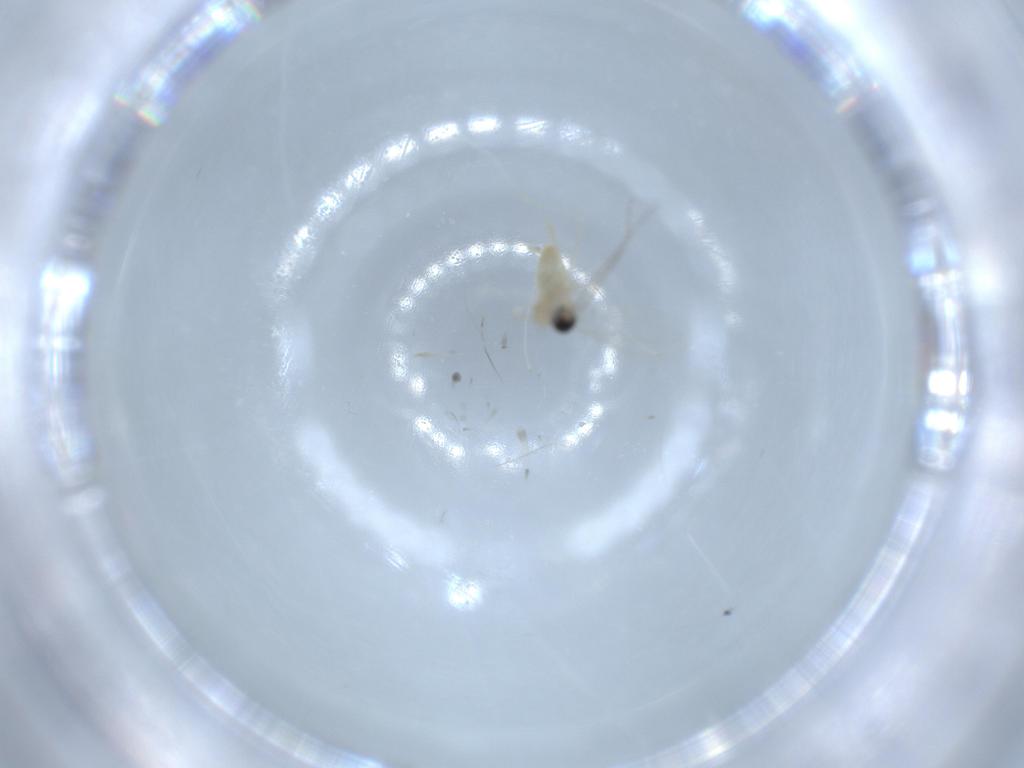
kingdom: Animalia
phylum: Arthropoda
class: Insecta
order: Diptera
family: Cecidomyiidae
